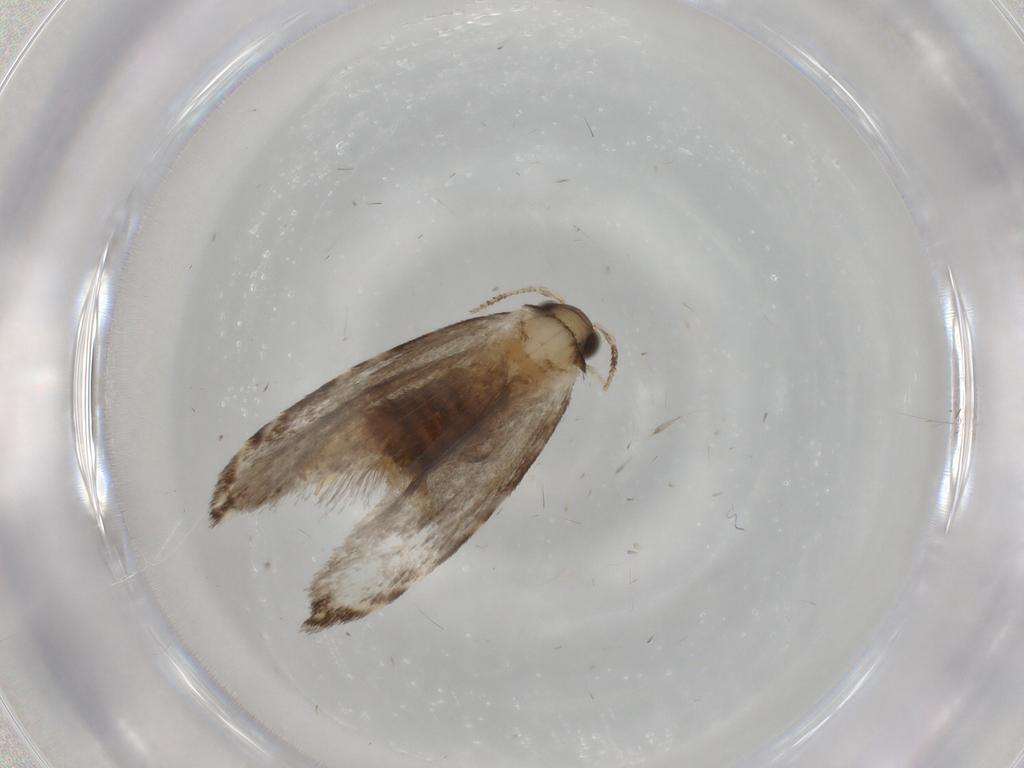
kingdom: Animalia
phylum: Arthropoda
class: Insecta
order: Lepidoptera
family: Tineidae
